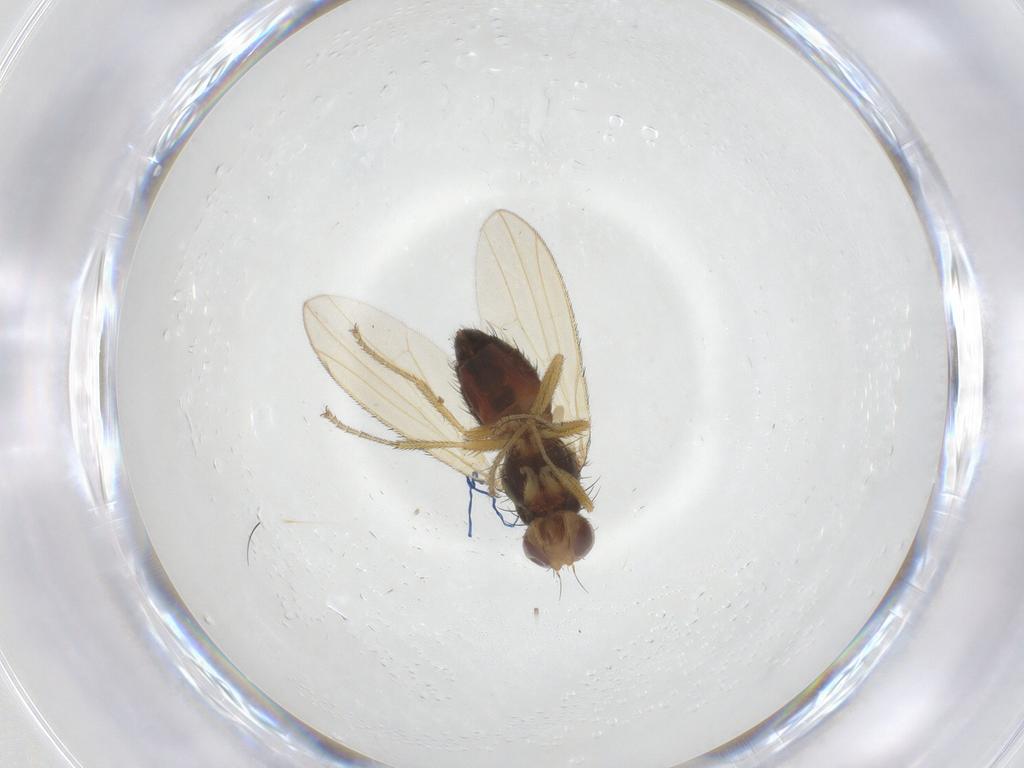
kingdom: Animalia
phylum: Arthropoda
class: Insecta
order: Diptera
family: Heleomyzidae
